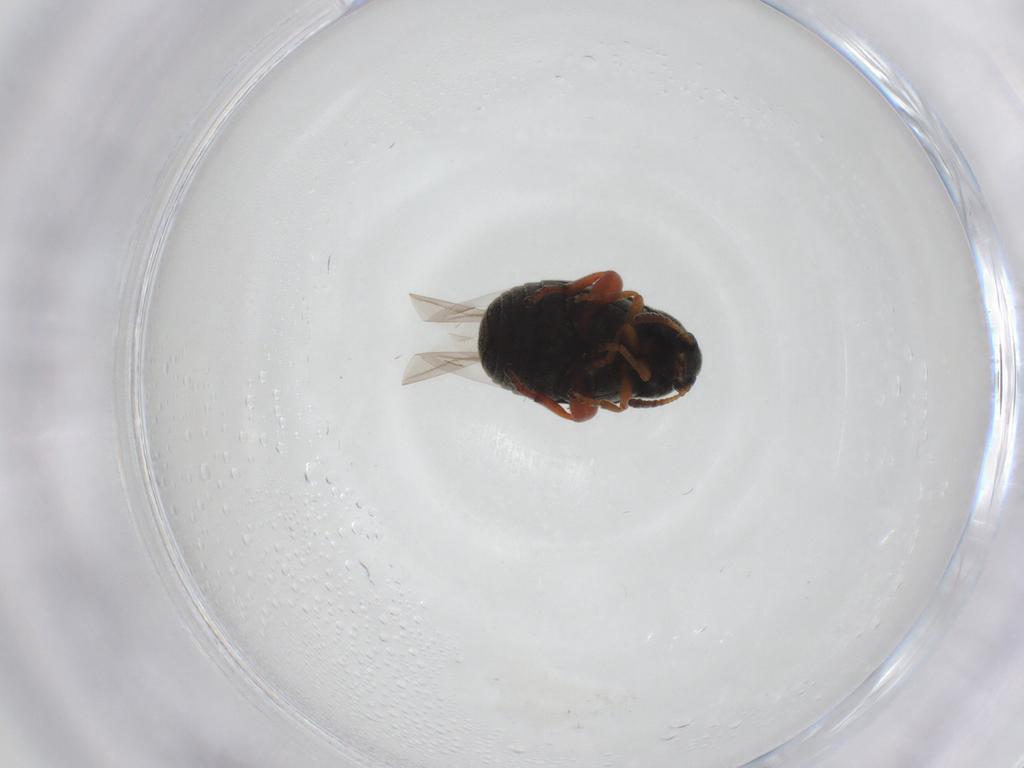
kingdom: Animalia
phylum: Arthropoda
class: Insecta
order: Coleoptera
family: Chrysomelidae
